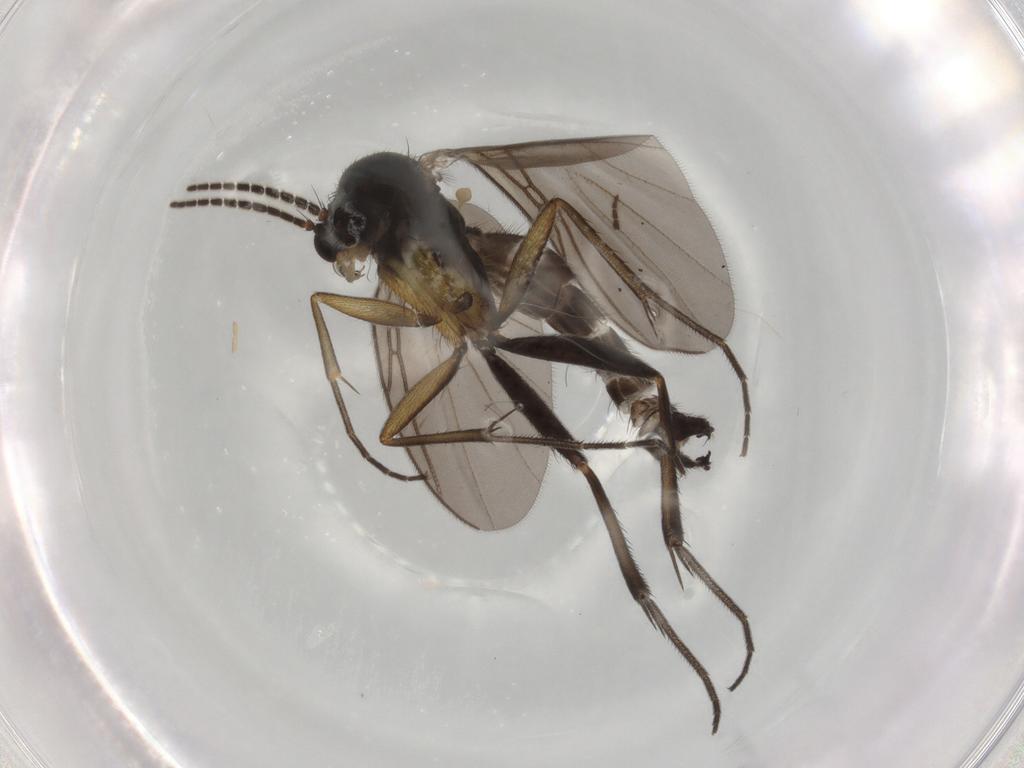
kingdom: Animalia
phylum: Arthropoda
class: Insecta
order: Diptera
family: Mycetophilidae
